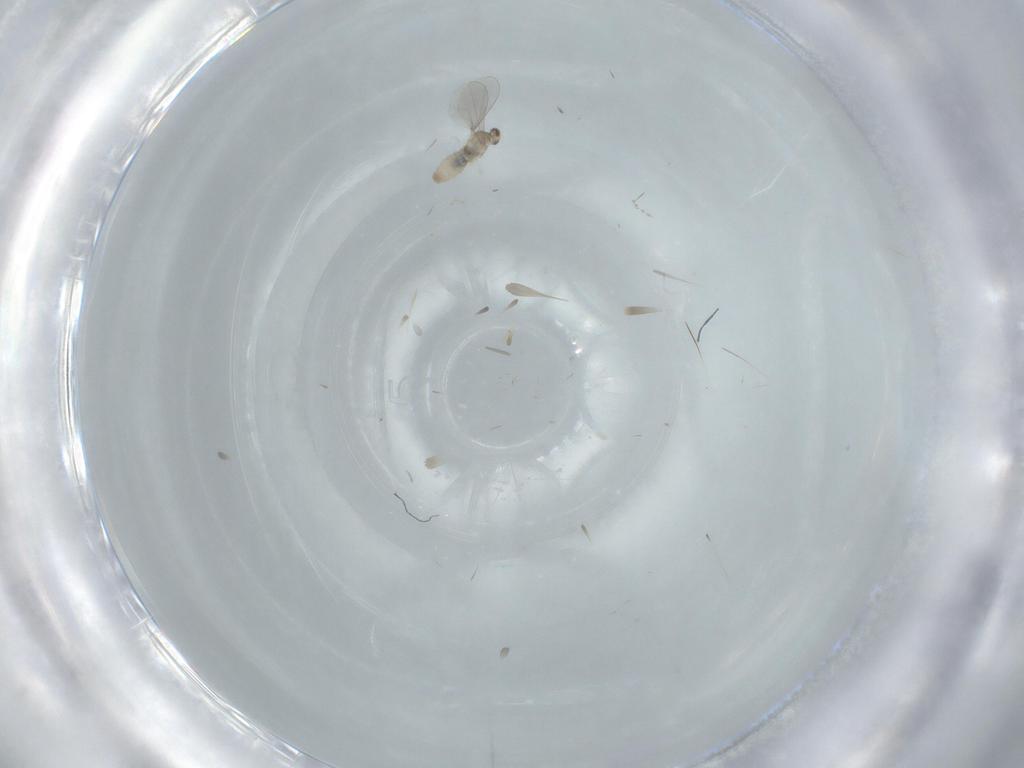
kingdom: Animalia
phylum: Arthropoda
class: Insecta
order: Diptera
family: Cecidomyiidae
